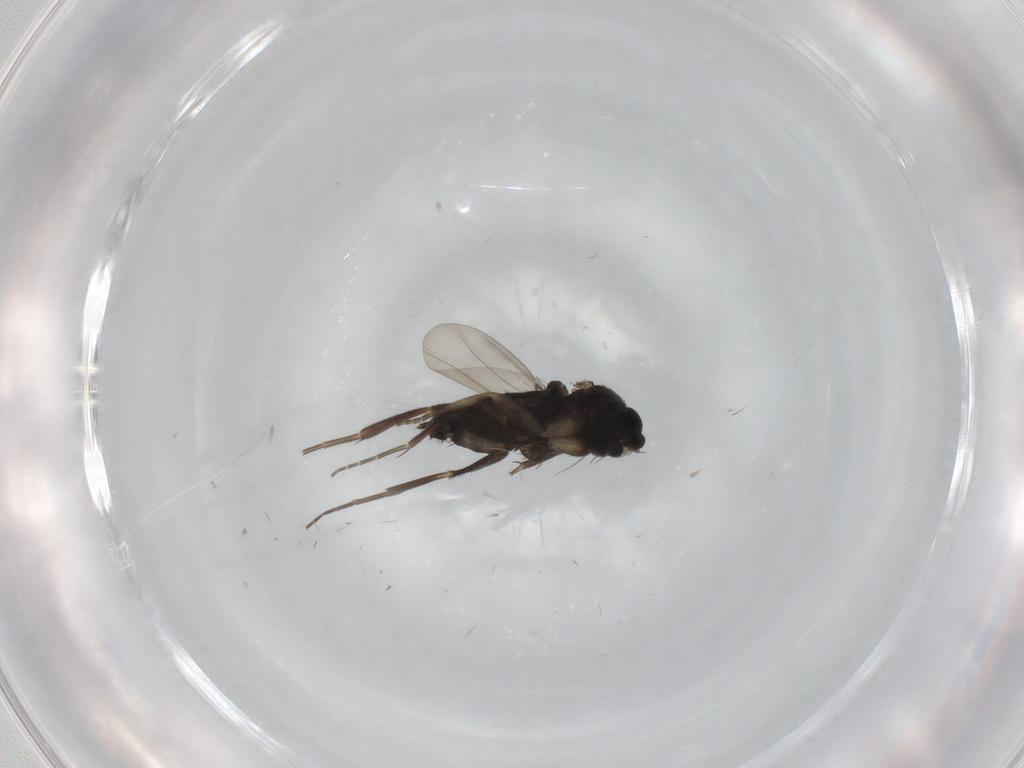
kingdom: Animalia
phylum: Arthropoda
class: Insecta
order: Diptera
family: Phoridae
